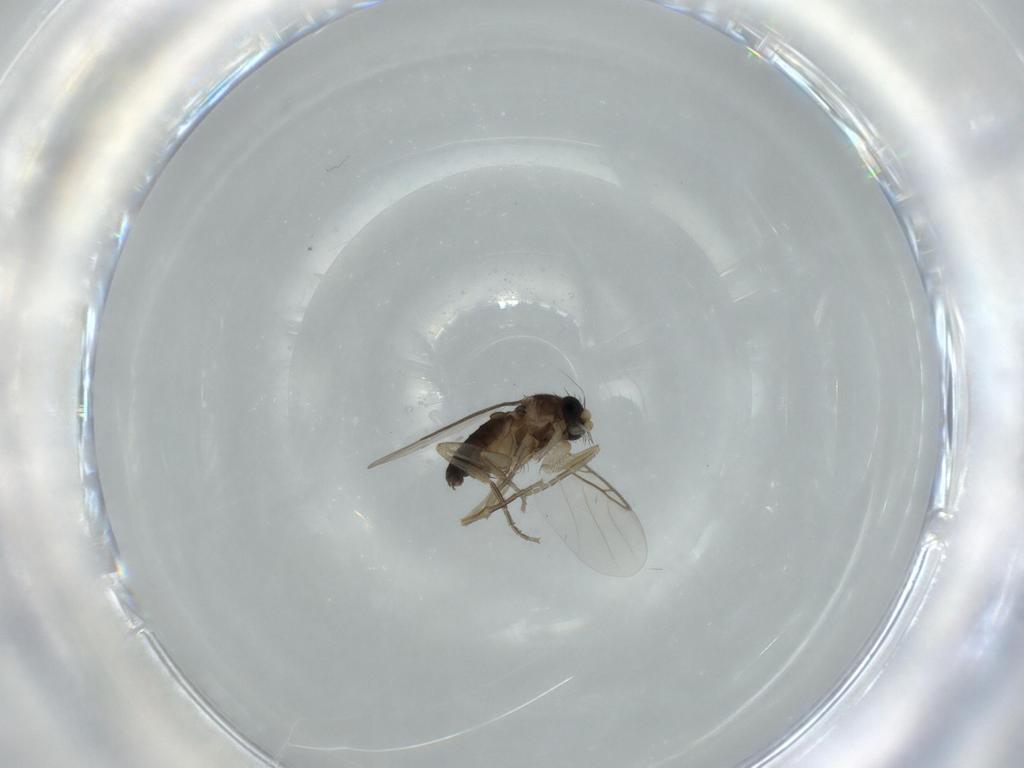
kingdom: Animalia
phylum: Arthropoda
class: Insecta
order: Diptera
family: Phoridae
